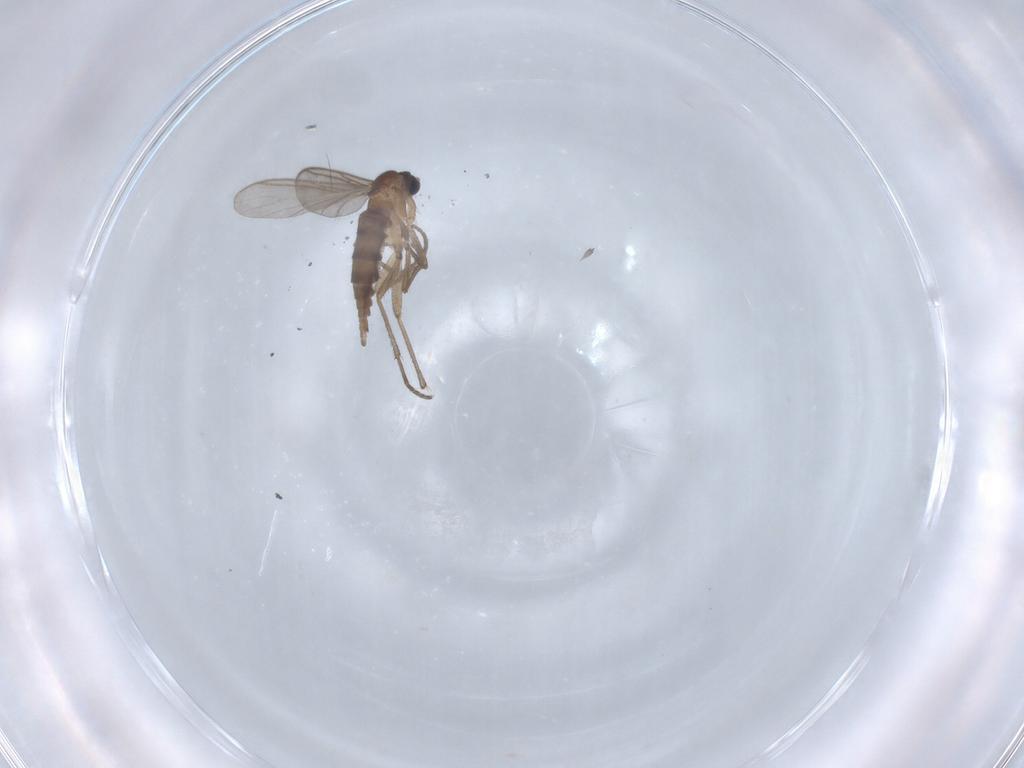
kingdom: Animalia
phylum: Arthropoda
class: Insecta
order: Diptera
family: Sciaridae
